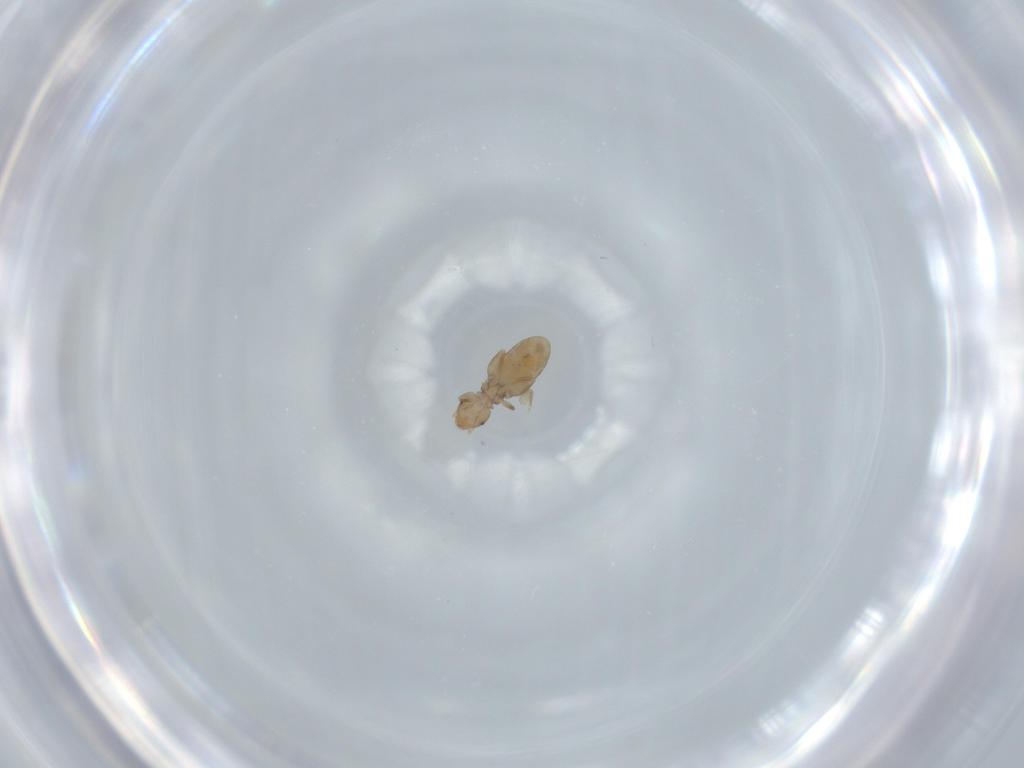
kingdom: Animalia
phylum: Arthropoda
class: Insecta
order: Psocodea
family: Liposcelididae
